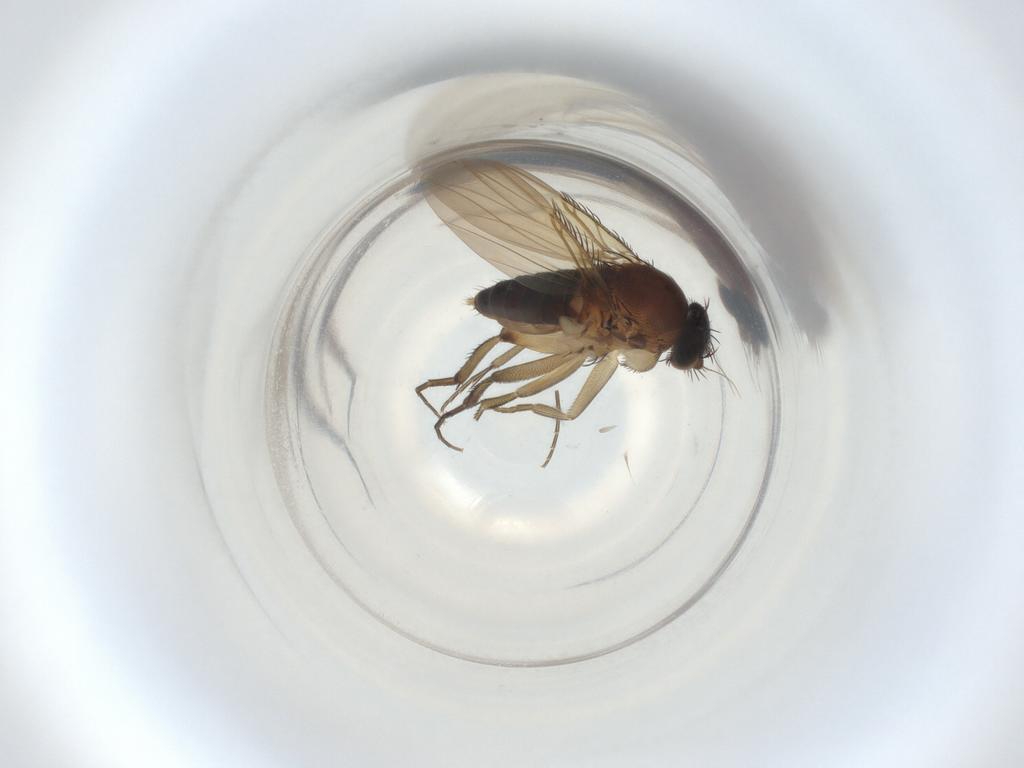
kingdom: Animalia
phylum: Arthropoda
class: Insecta
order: Diptera
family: Phoridae
